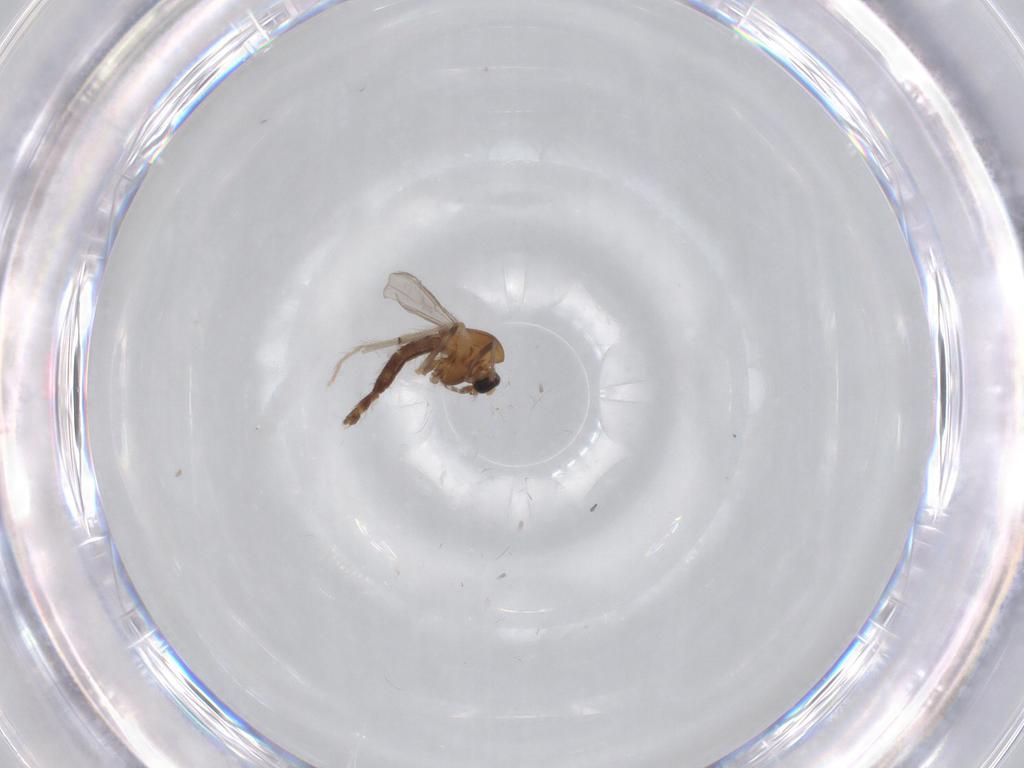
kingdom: Animalia
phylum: Arthropoda
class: Insecta
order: Diptera
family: Chironomidae
